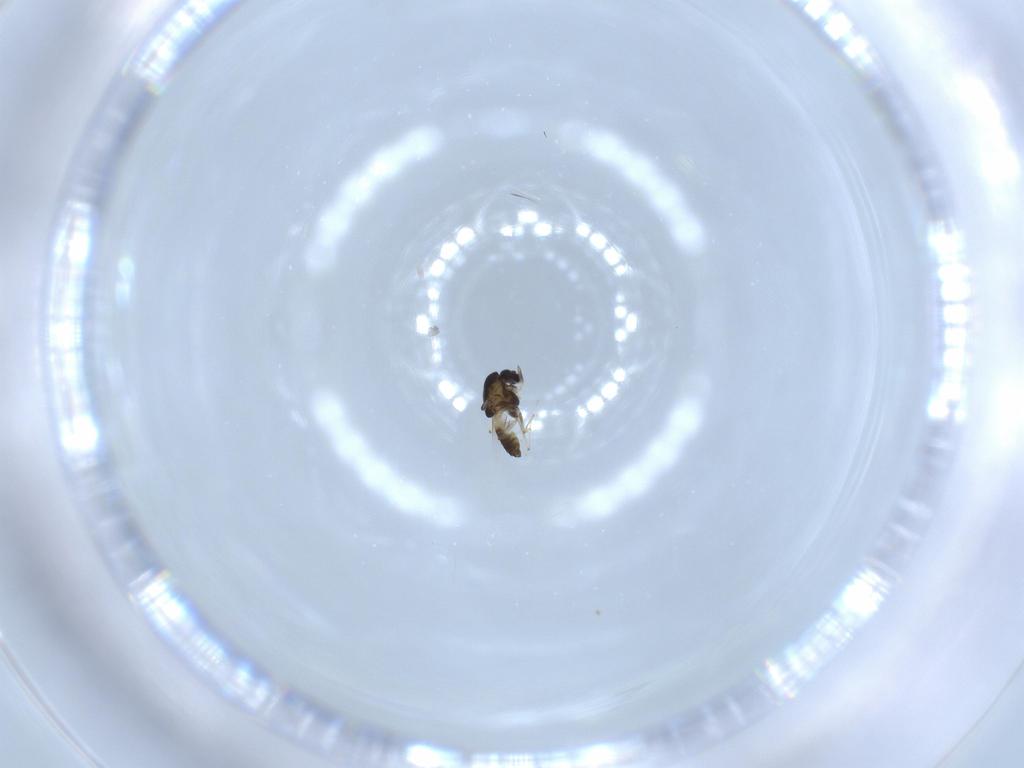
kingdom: Animalia
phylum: Arthropoda
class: Insecta
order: Diptera
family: Chironomidae
